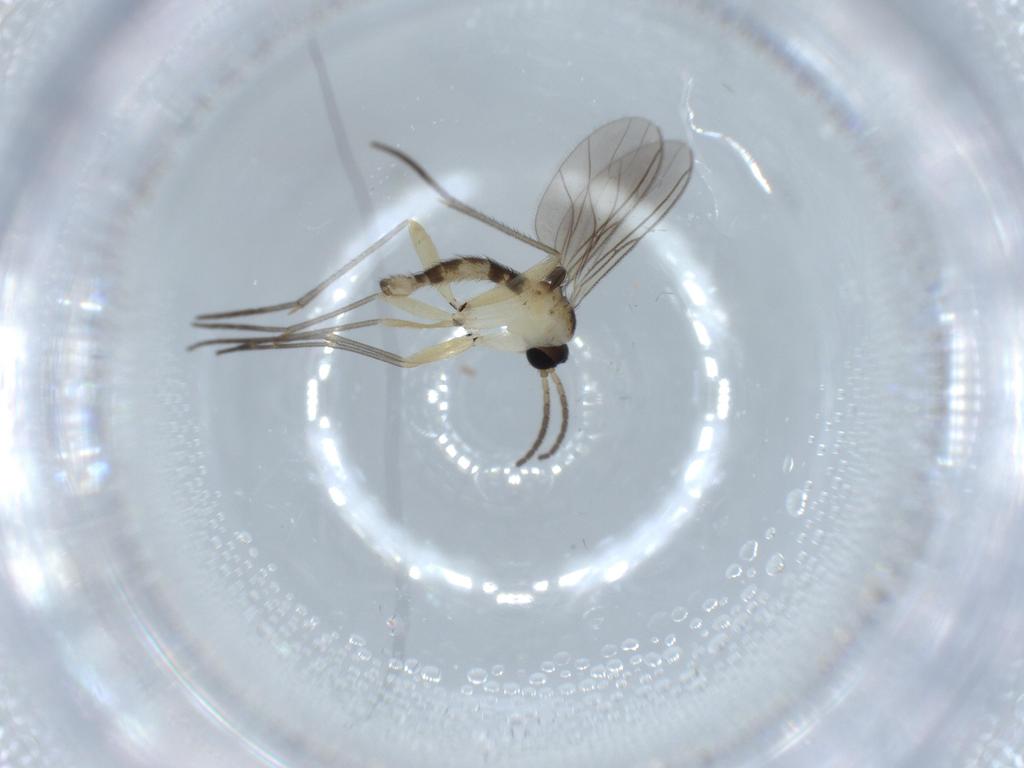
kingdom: Animalia
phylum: Arthropoda
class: Insecta
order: Diptera
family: Sciaridae
